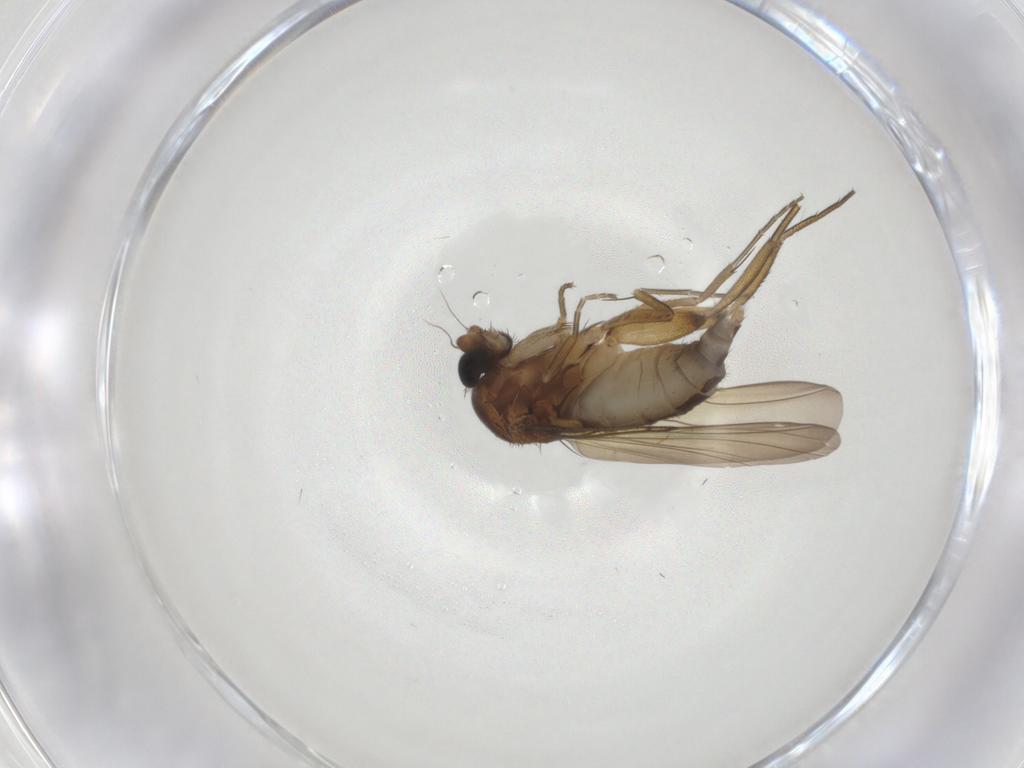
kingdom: Animalia
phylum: Arthropoda
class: Insecta
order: Diptera
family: Phoridae
